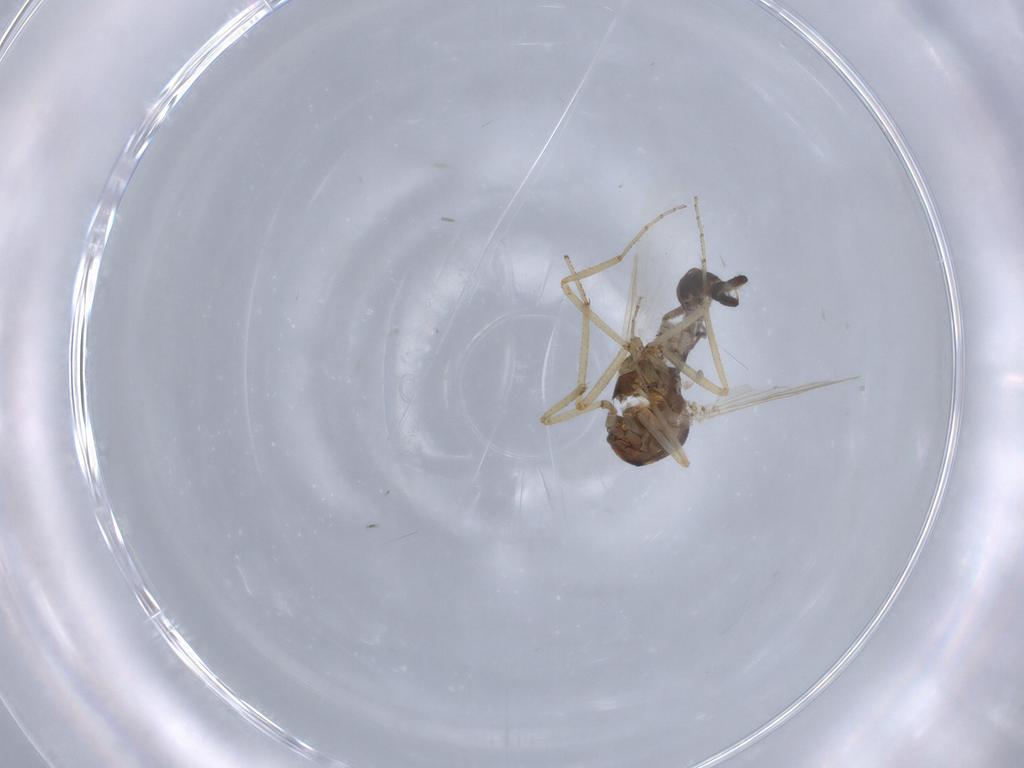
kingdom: Animalia
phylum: Arthropoda
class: Insecta
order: Diptera
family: Ceratopogonidae
